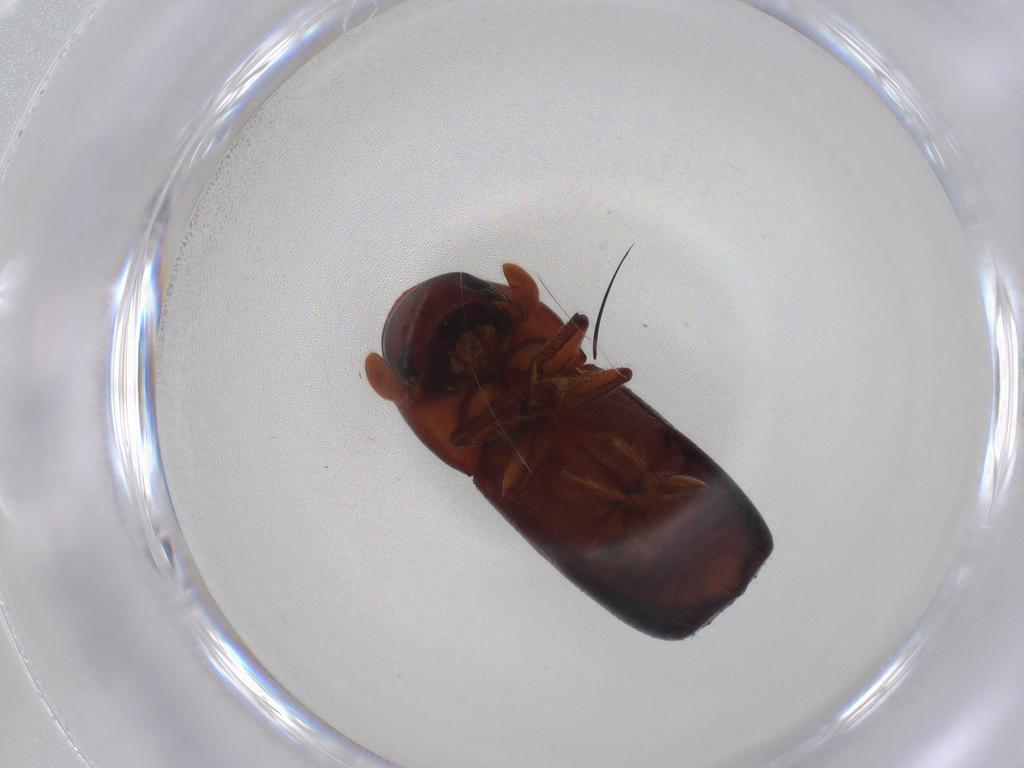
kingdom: Animalia
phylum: Arthropoda
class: Insecta
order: Coleoptera
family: Curculionidae
